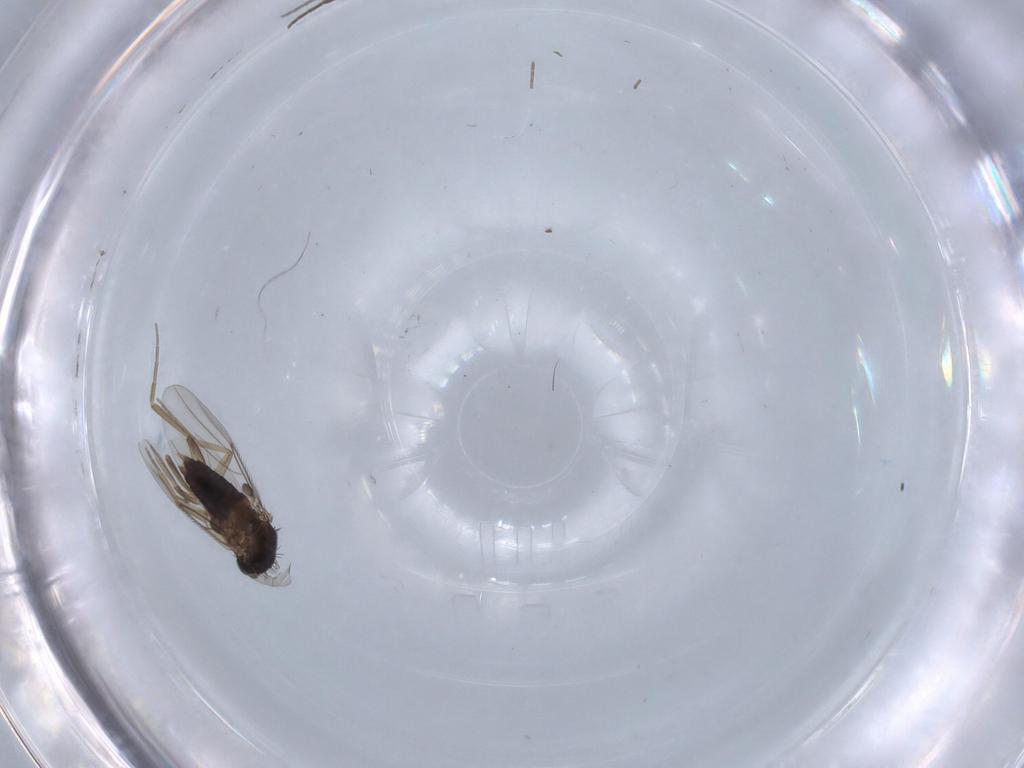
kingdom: Animalia
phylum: Arthropoda
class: Insecta
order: Diptera
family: Phoridae
